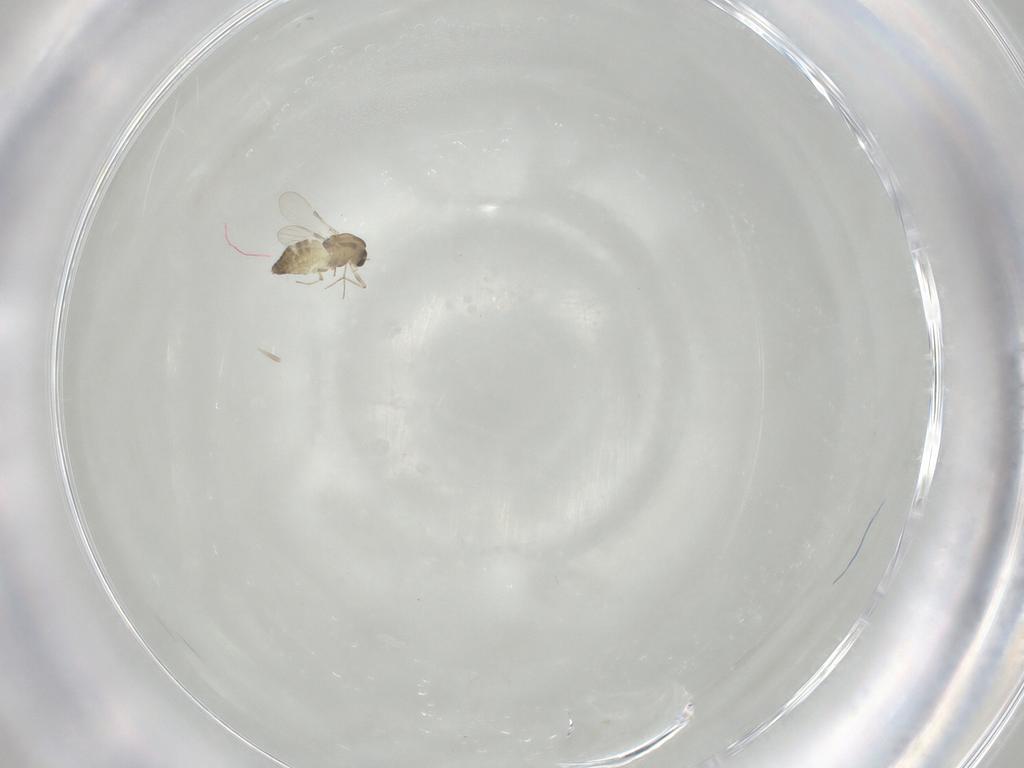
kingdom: Animalia
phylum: Arthropoda
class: Insecta
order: Diptera
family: Chironomidae
